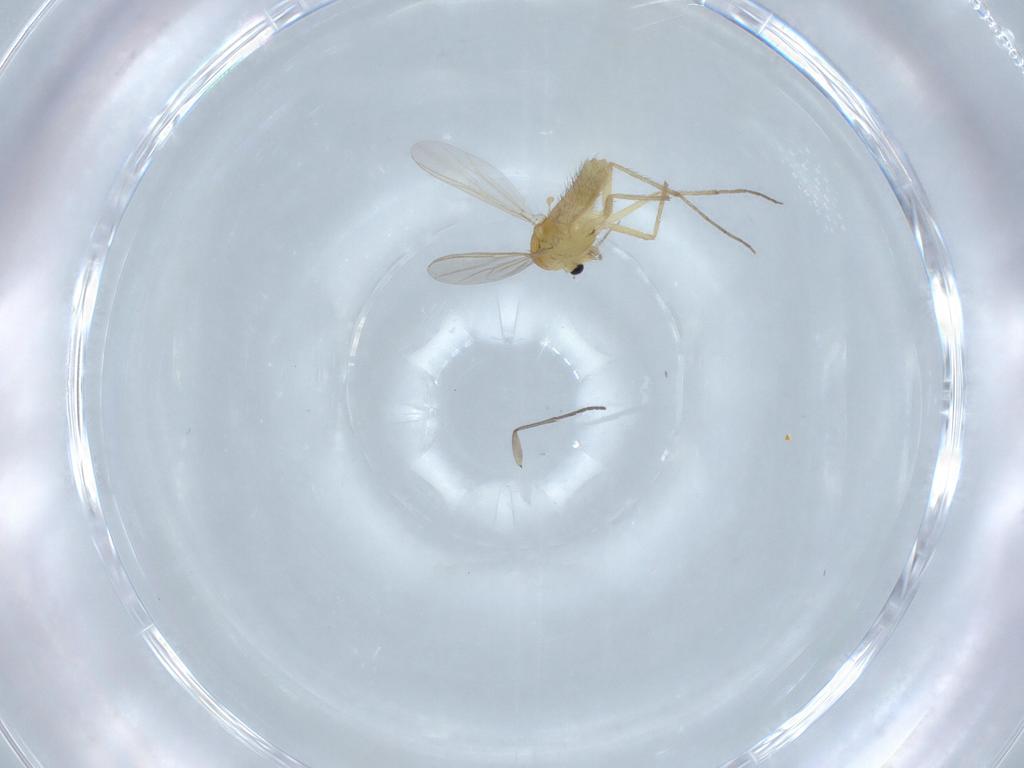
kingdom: Animalia
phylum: Arthropoda
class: Insecta
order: Diptera
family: Chironomidae
